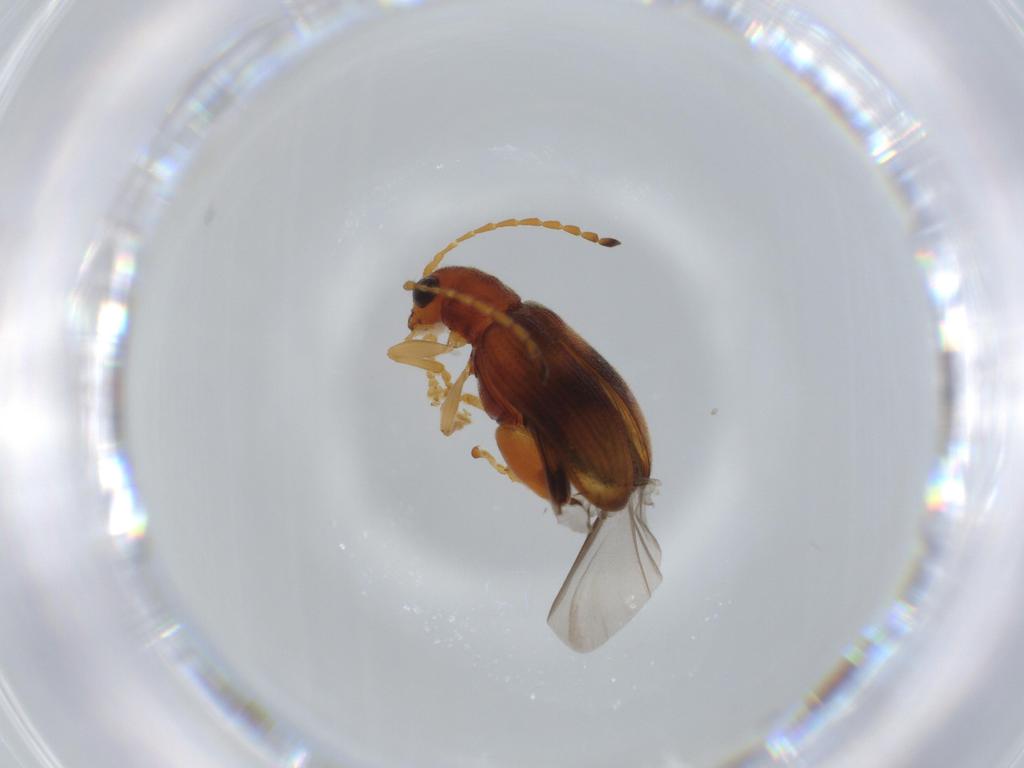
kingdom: Animalia
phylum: Arthropoda
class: Insecta
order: Coleoptera
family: Chrysomelidae
